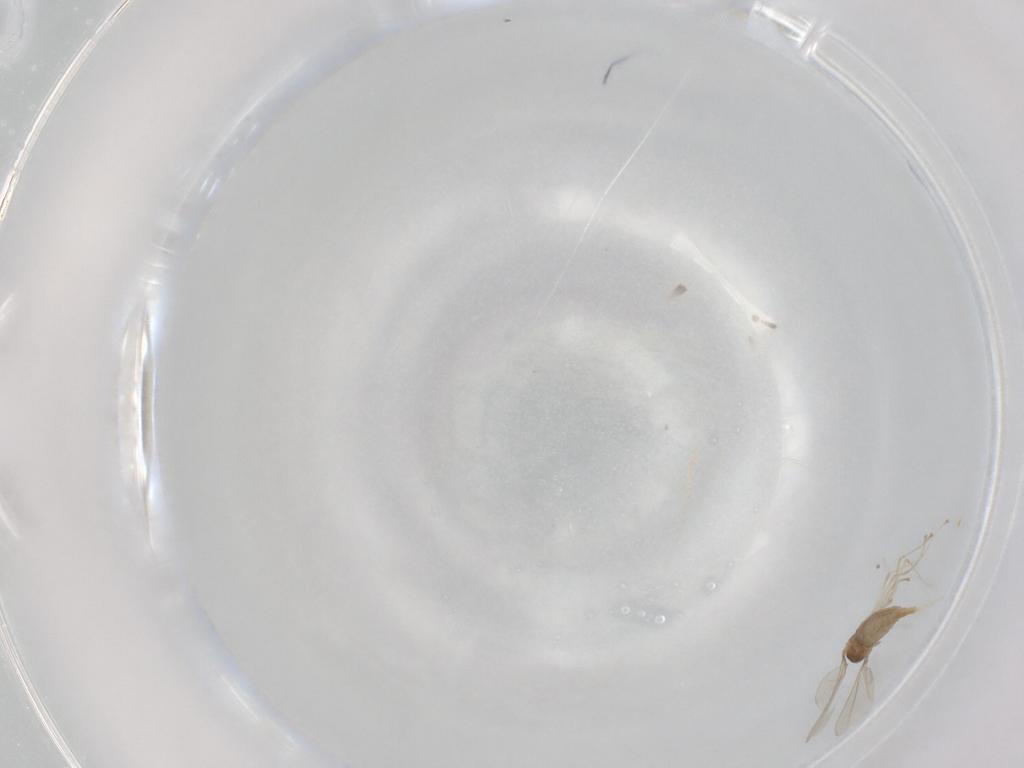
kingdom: Animalia
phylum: Arthropoda
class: Insecta
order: Diptera
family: Cecidomyiidae
